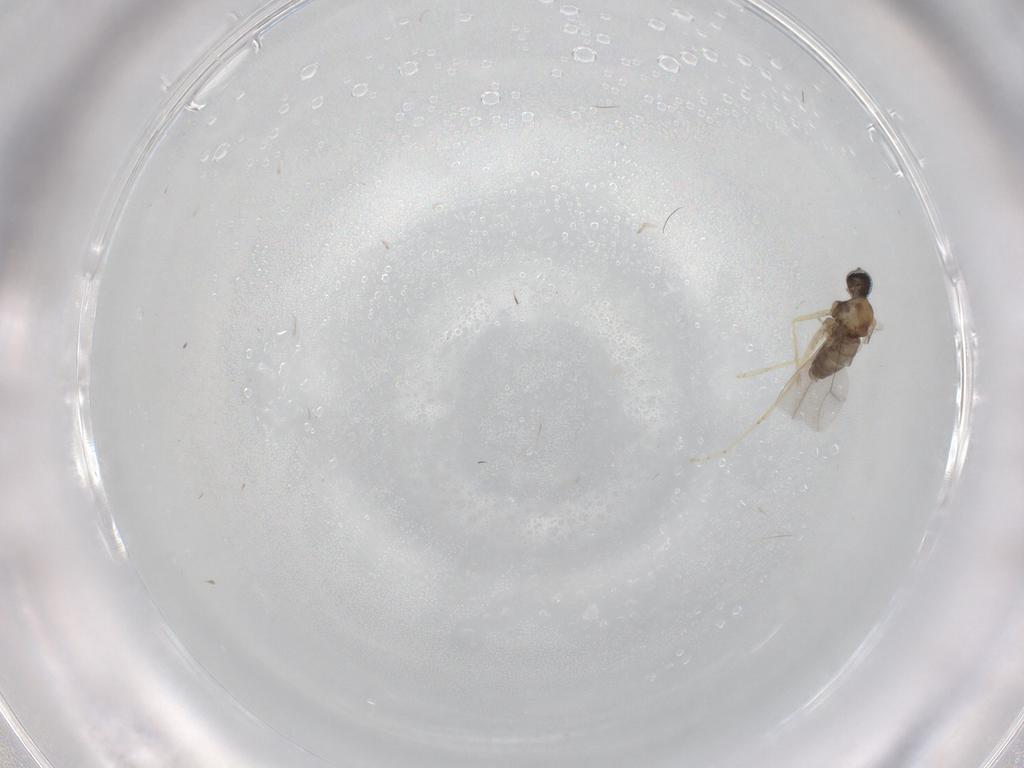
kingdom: Animalia
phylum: Arthropoda
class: Insecta
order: Diptera
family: Cecidomyiidae
